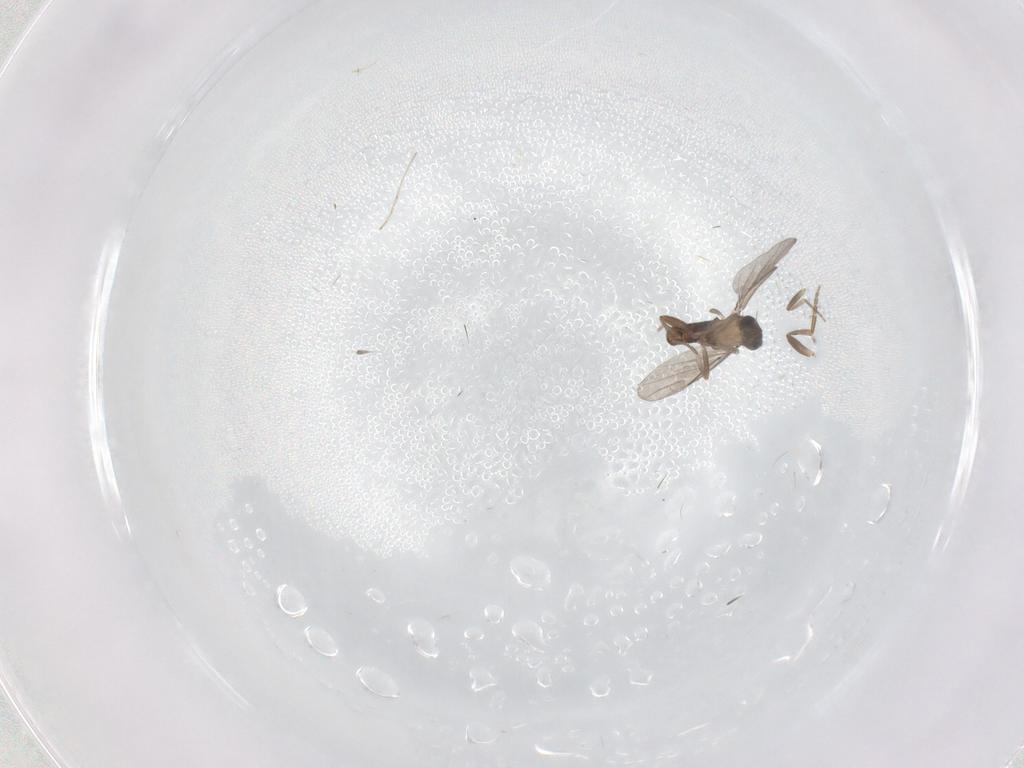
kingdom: Animalia
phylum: Arthropoda
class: Insecta
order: Diptera
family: Phoridae
